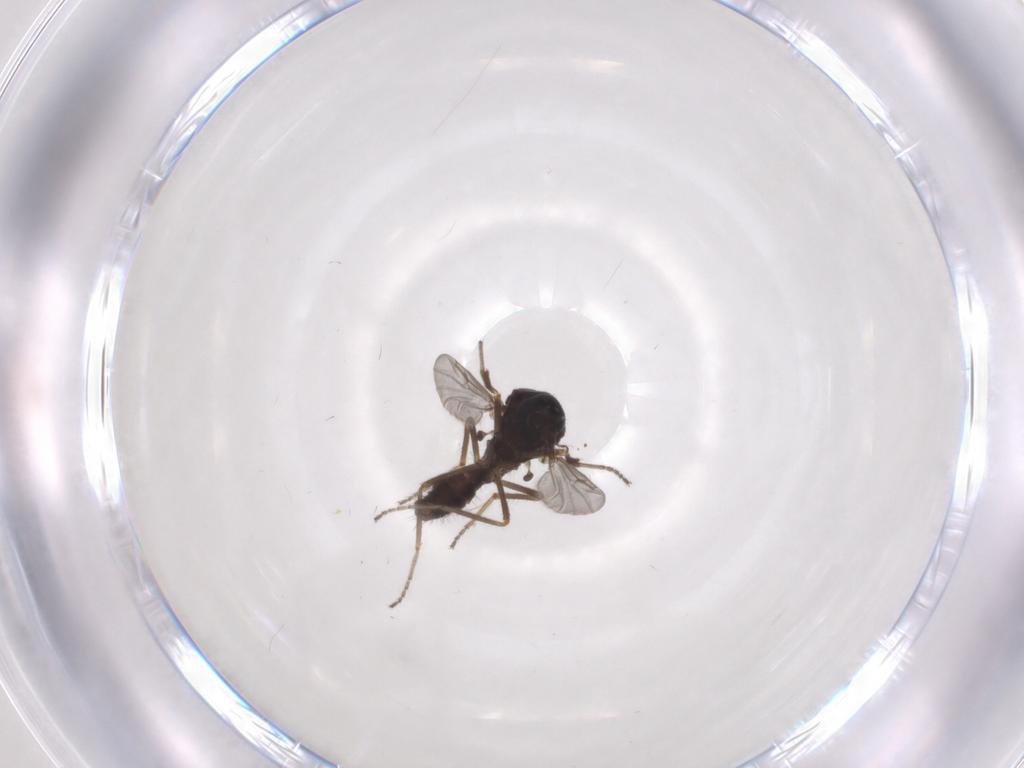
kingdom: Animalia
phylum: Arthropoda
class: Insecta
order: Diptera
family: Ceratopogonidae
